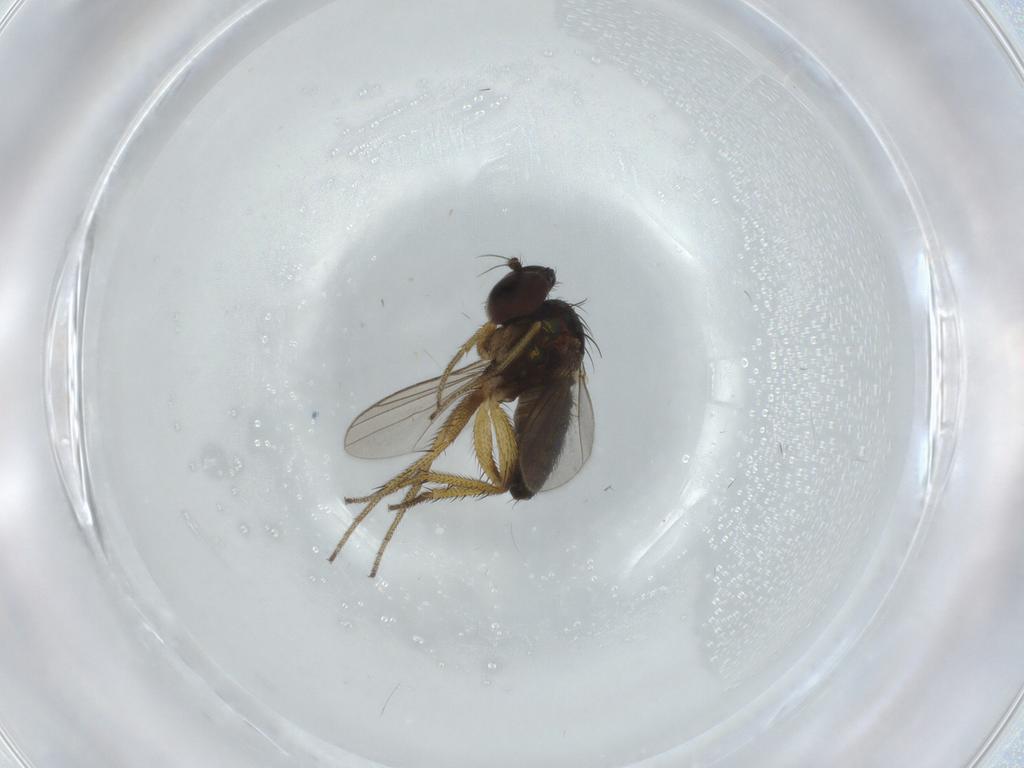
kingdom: Animalia
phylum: Arthropoda
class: Insecta
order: Diptera
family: Dolichopodidae
